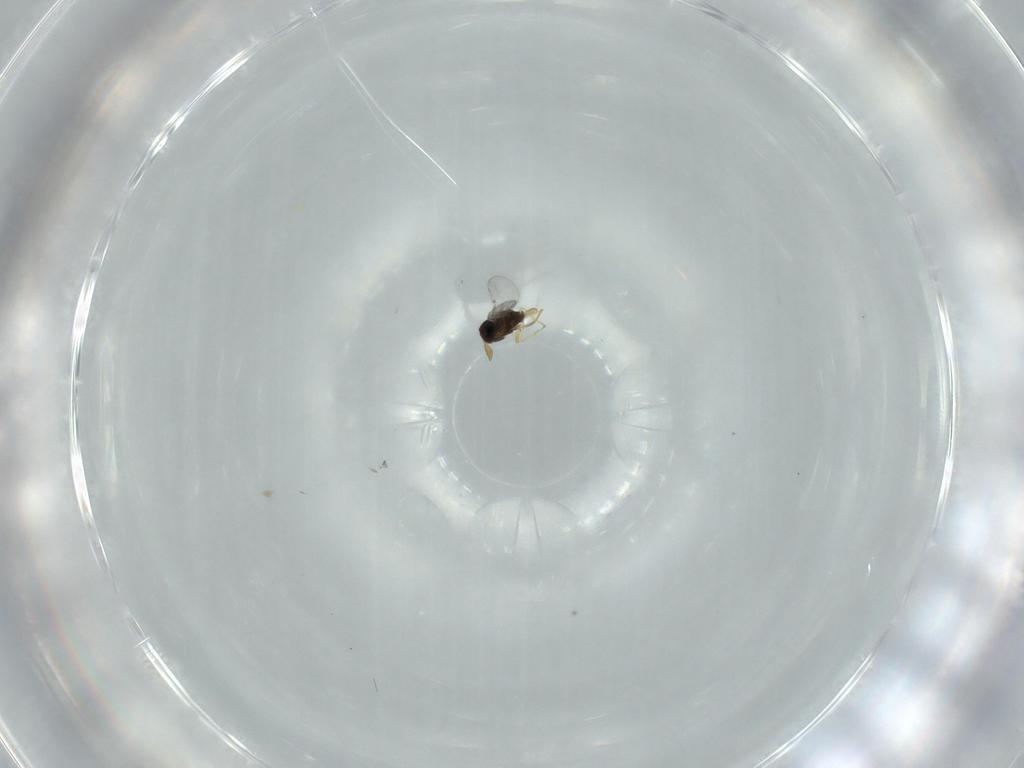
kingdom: Animalia
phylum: Arthropoda
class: Insecta
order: Hymenoptera
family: Encyrtidae
